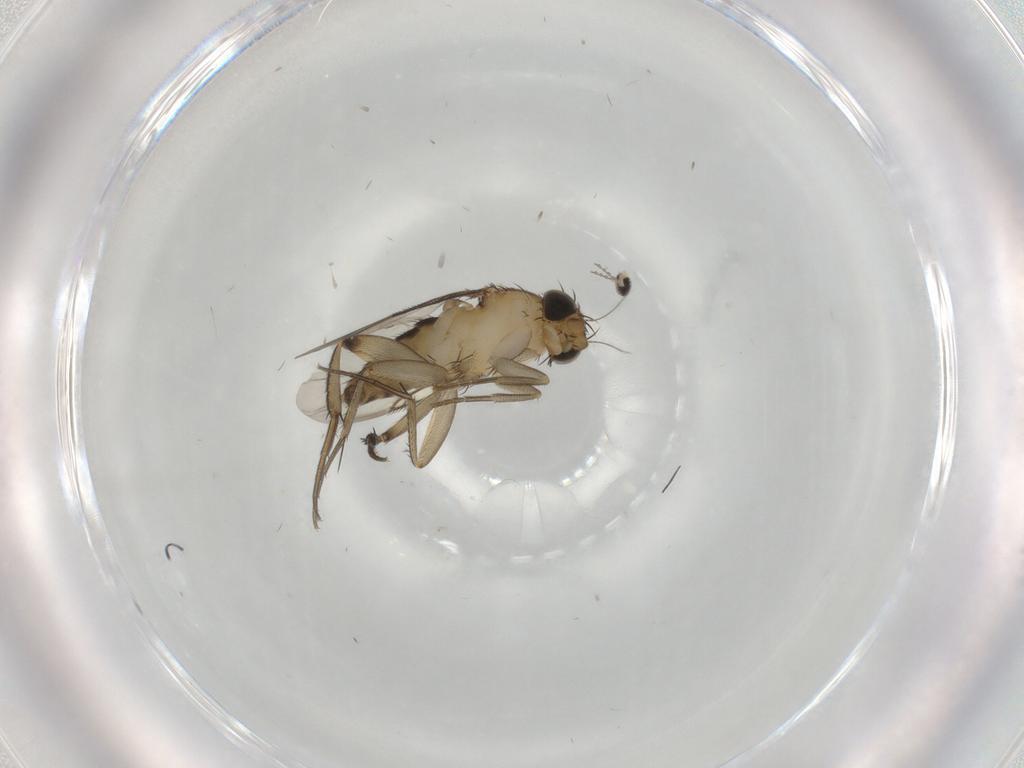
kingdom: Animalia
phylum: Arthropoda
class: Insecta
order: Diptera
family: Phoridae
